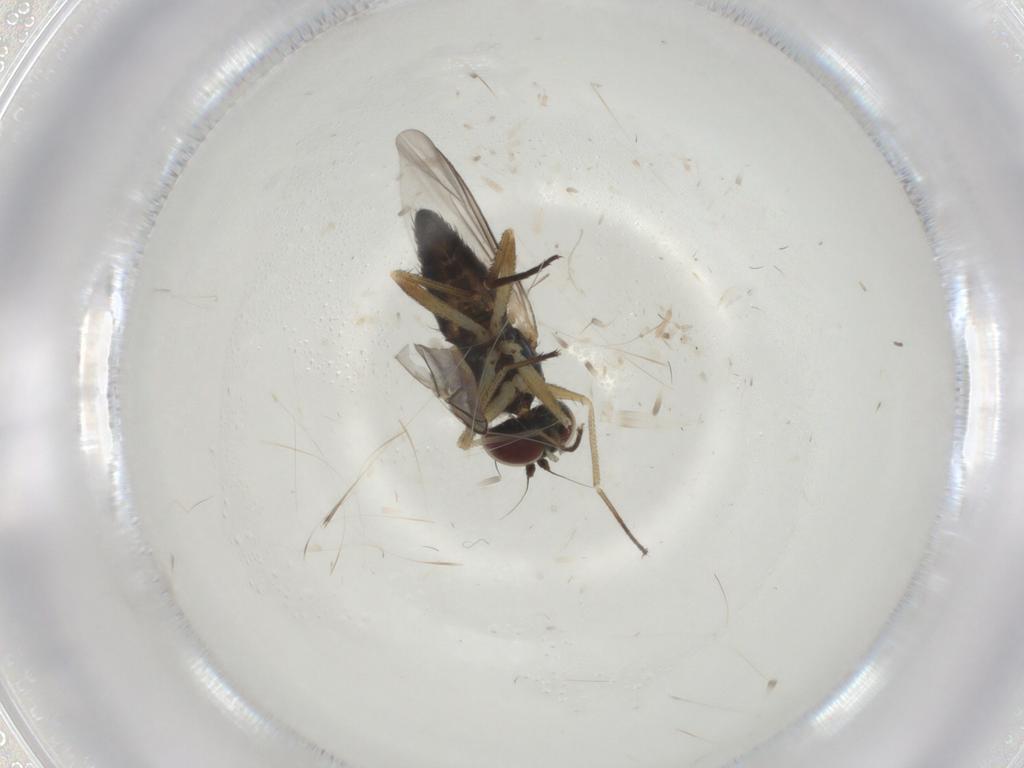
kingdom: Animalia
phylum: Arthropoda
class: Insecta
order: Diptera
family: Dolichopodidae
